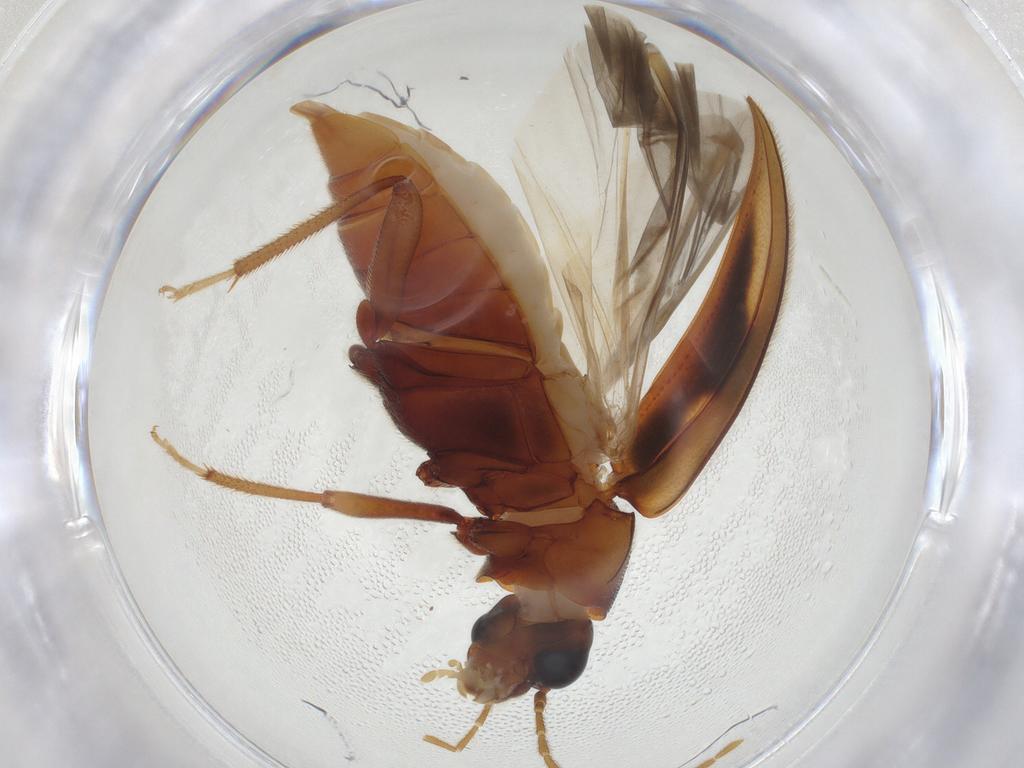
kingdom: Animalia
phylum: Arthropoda
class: Insecta
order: Coleoptera
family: Ptilodactylidae
